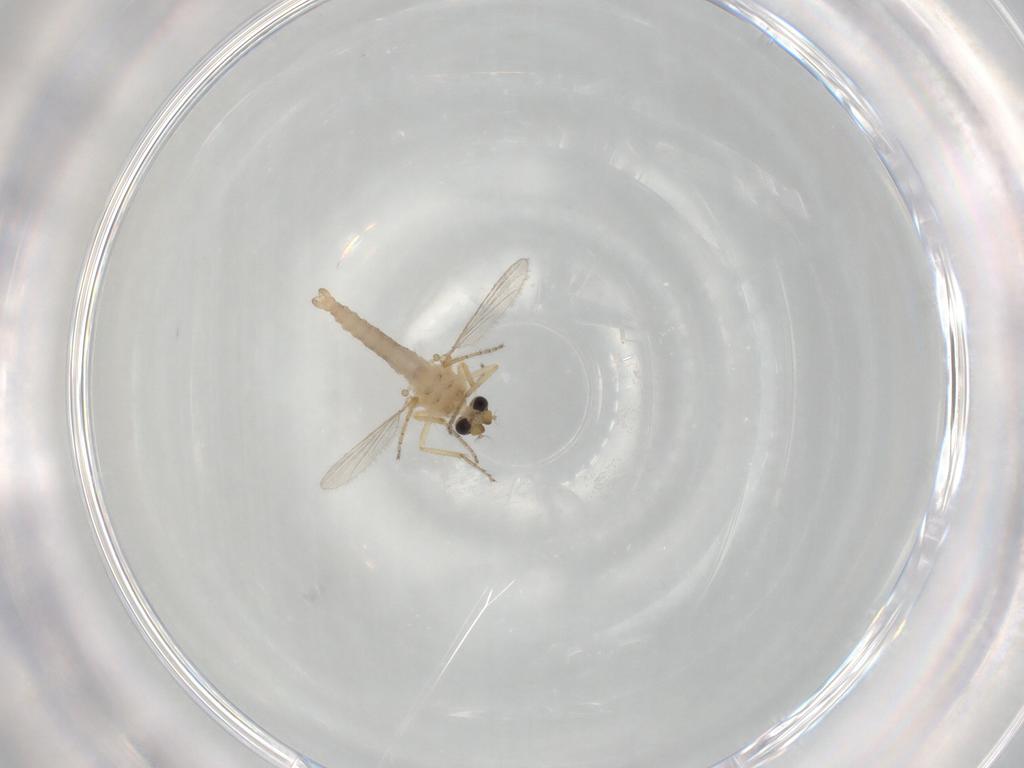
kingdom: Animalia
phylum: Arthropoda
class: Insecta
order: Diptera
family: Ceratopogonidae
